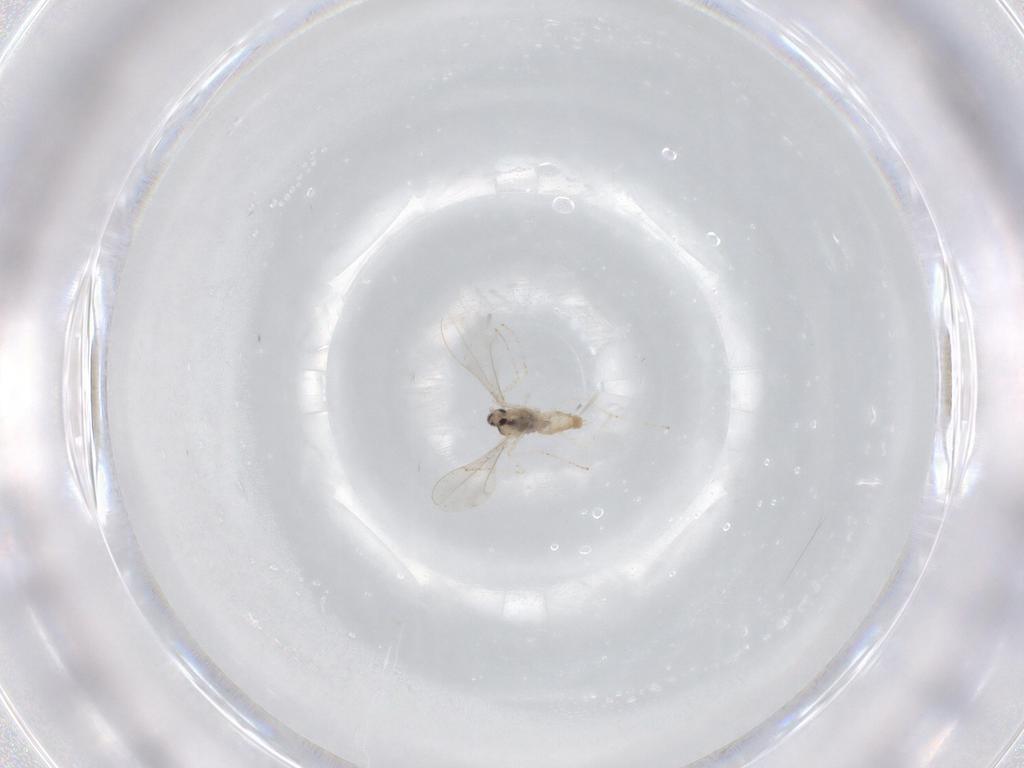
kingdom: Animalia
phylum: Arthropoda
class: Insecta
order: Diptera
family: Cecidomyiidae
